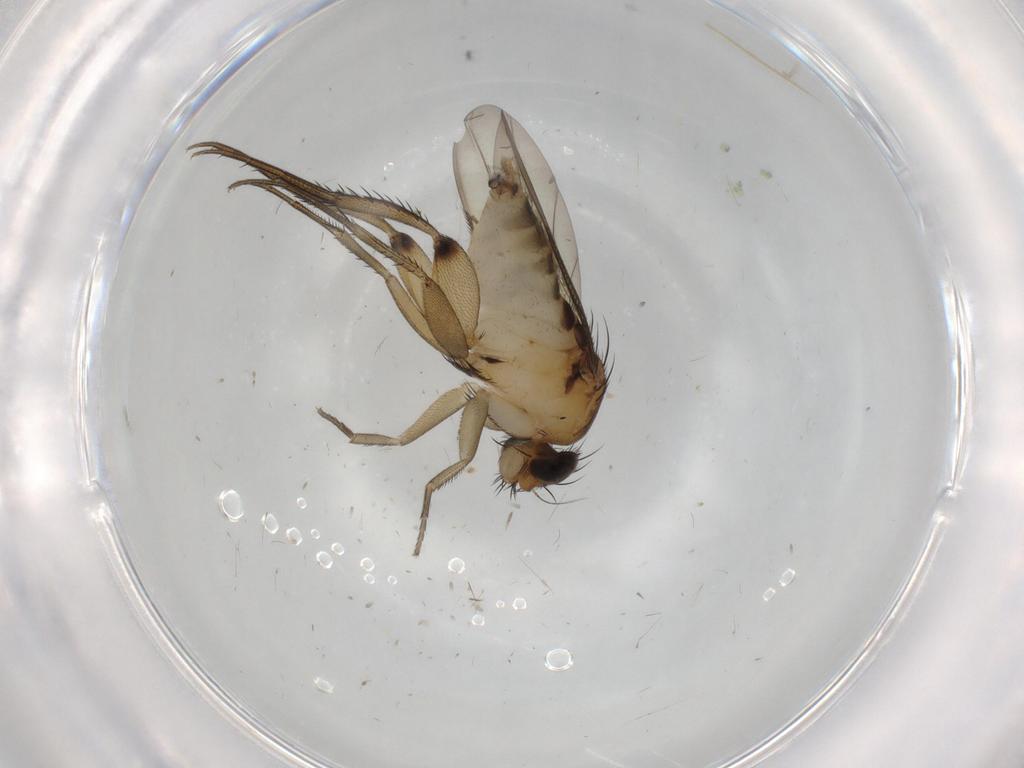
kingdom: Animalia
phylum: Arthropoda
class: Insecta
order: Diptera
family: Cecidomyiidae
